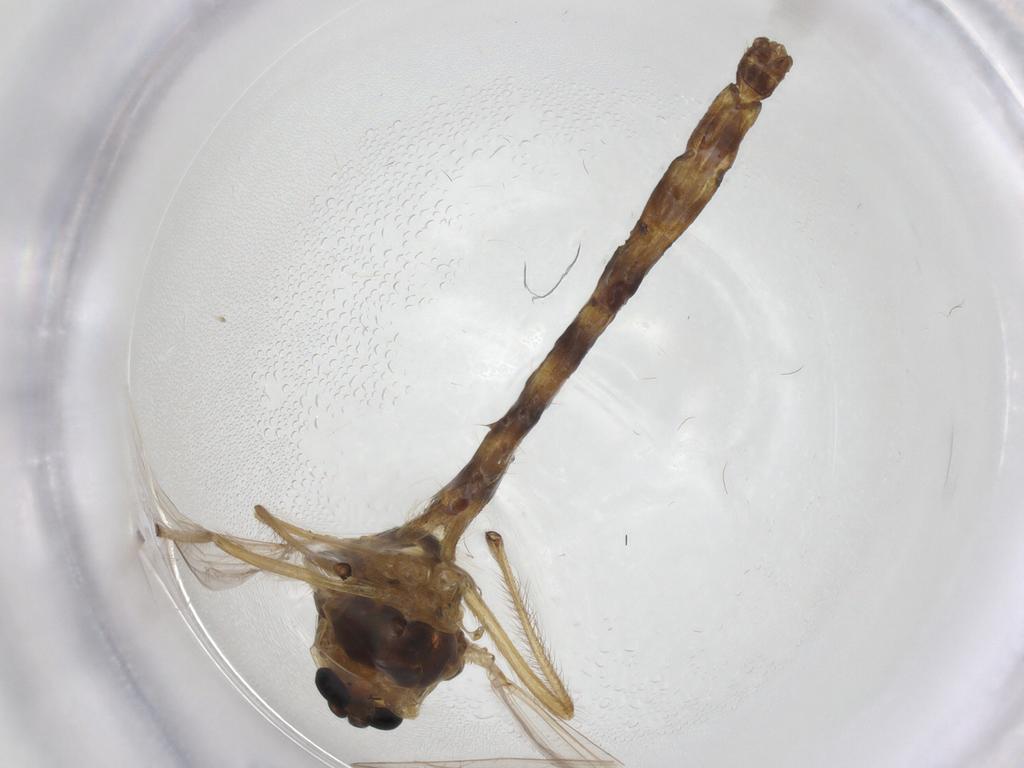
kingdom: Animalia
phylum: Arthropoda
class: Insecta
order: Diptera
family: Chironomidae
